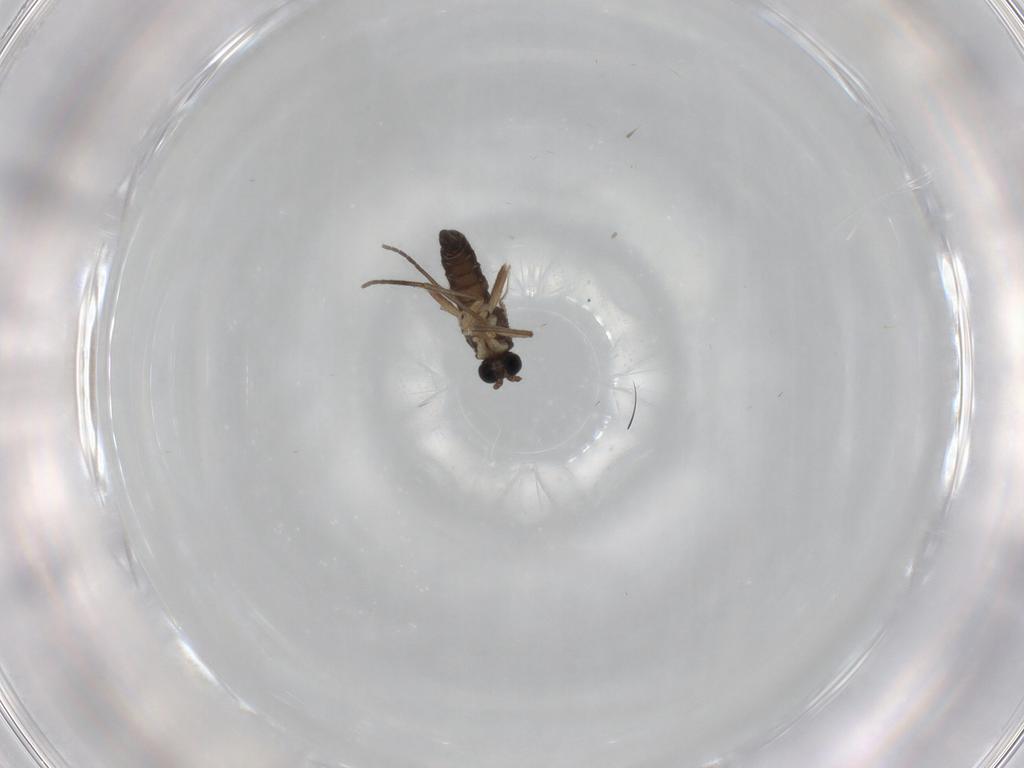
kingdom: Animalia
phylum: Arthropoda
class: Insecta
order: Diptera
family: Sciaridae
